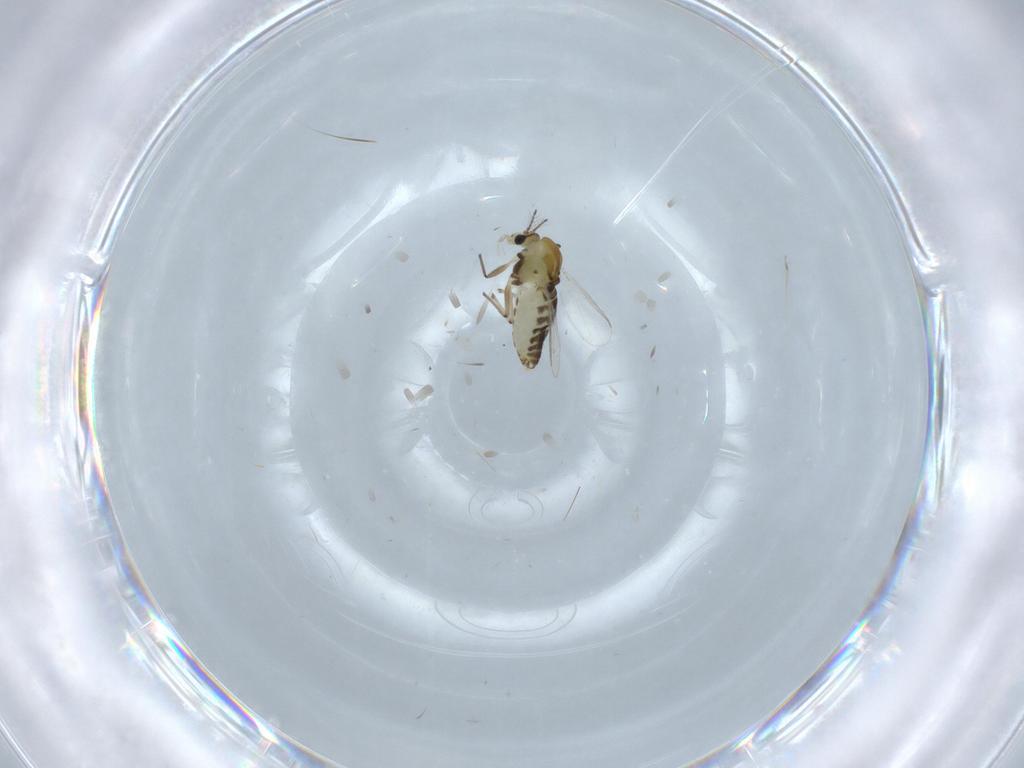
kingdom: Animalia
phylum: Arthropoda
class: Insecta
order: Diptera
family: Chironomidae
